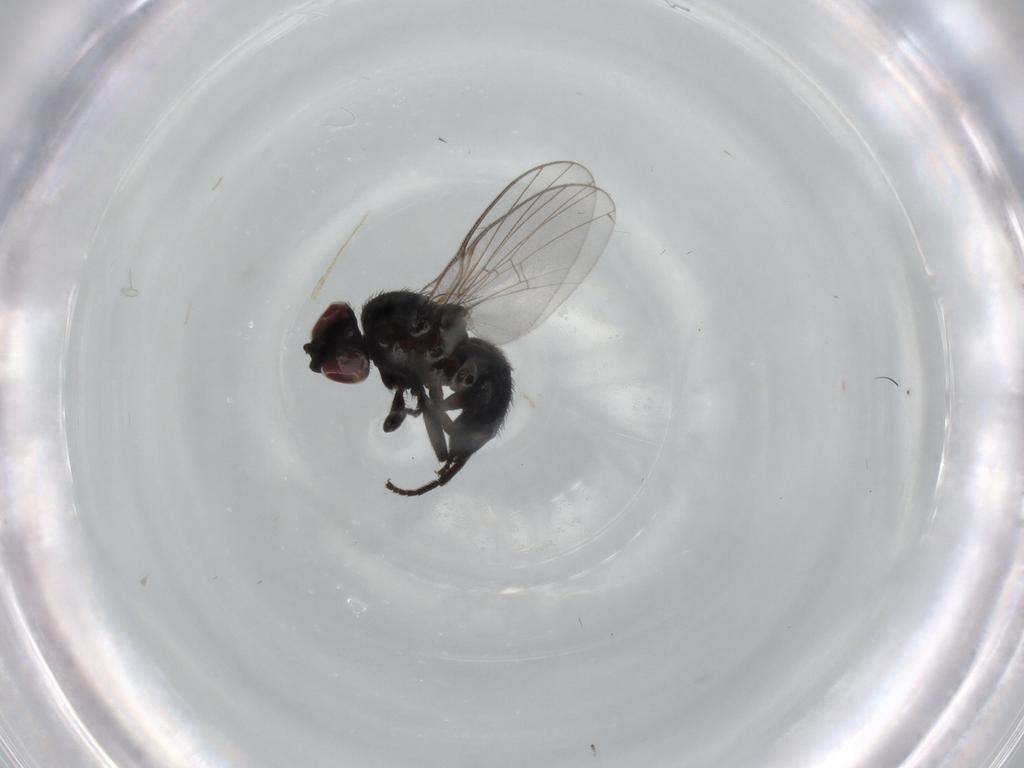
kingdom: Animalia
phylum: Arthropoda
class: Insecta
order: Diptera
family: Agromyzidae
